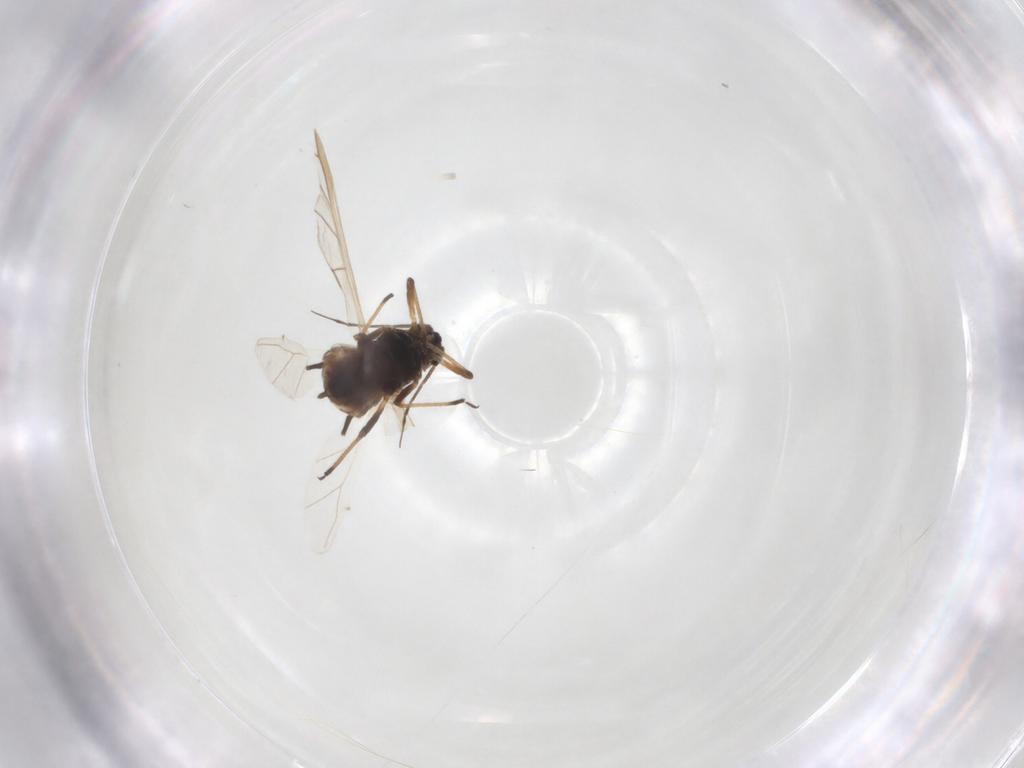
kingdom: Animalia
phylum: Arthropoda
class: Insecta
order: Hemiptera
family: Aphididae
